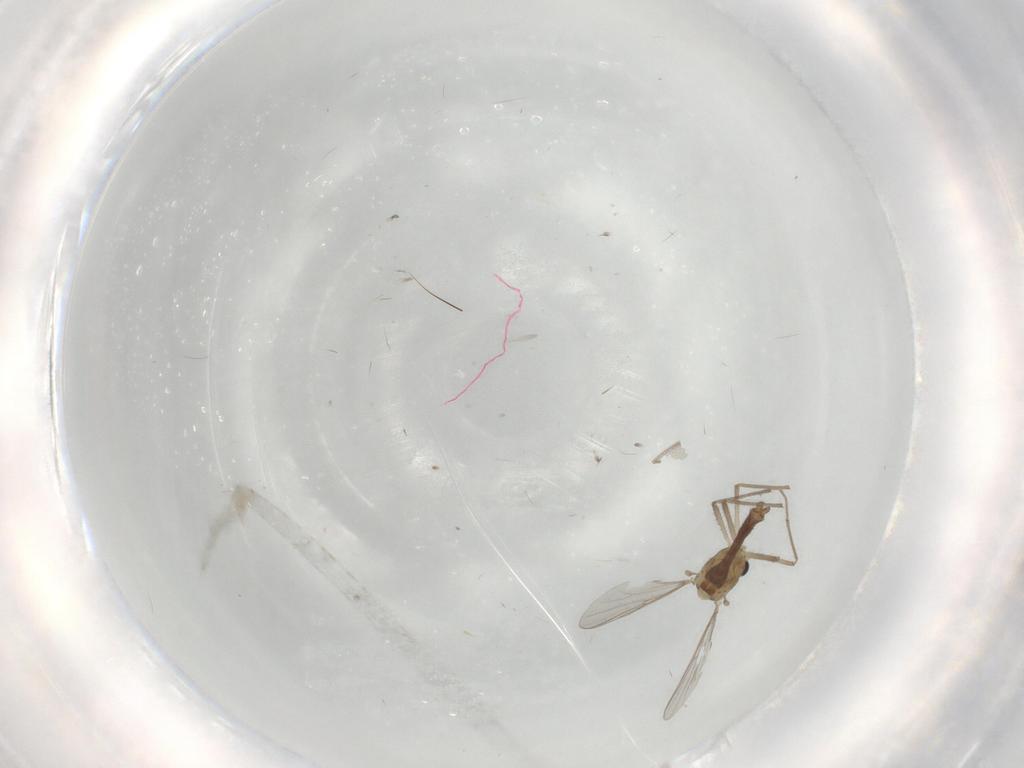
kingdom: Animalia
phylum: Arthropoda
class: Insecta
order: Diptera
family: Chironomidae
